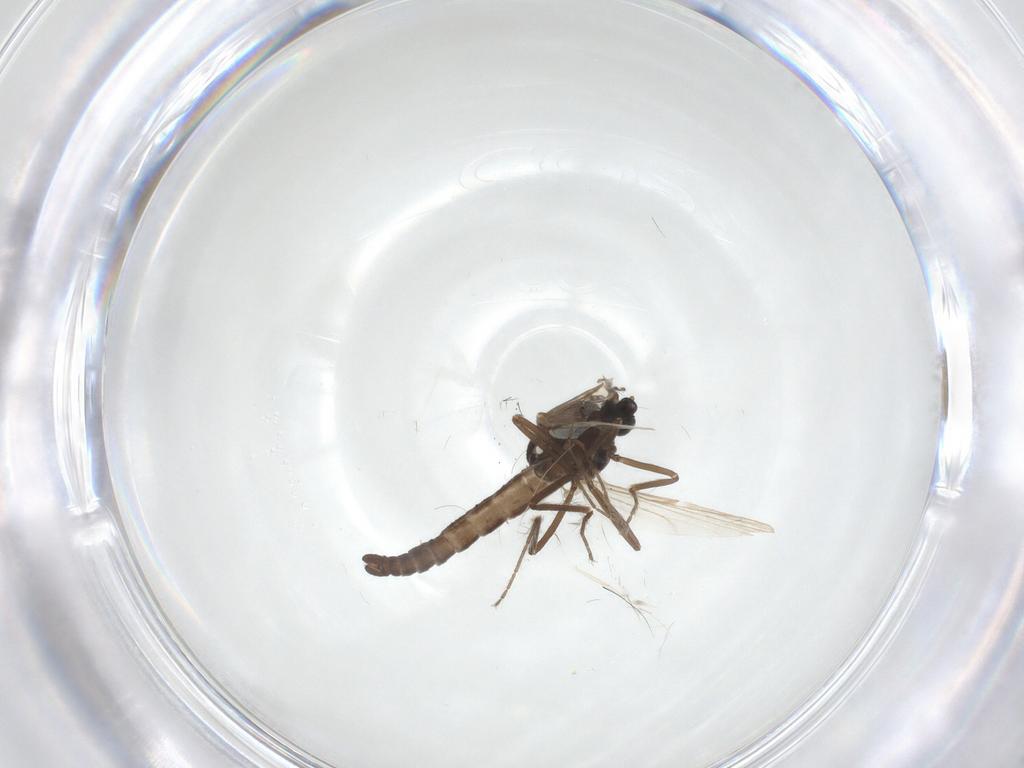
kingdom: Animalia
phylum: Arthropoda
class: Insecta
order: Diptera
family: Ceratopogonidae
